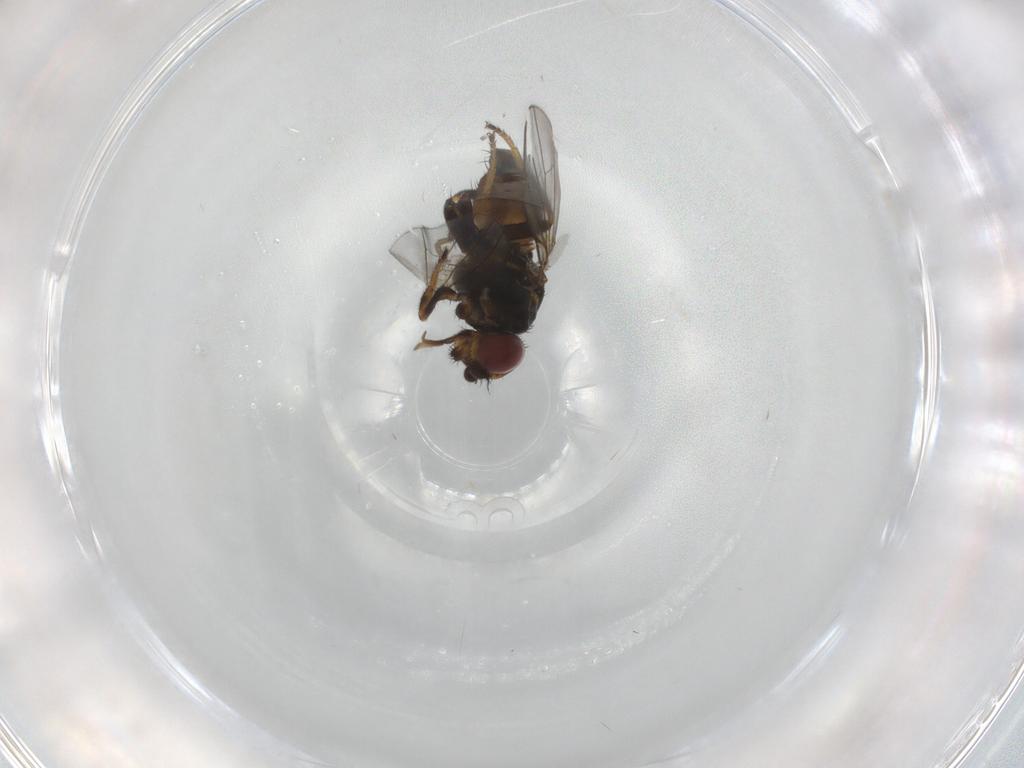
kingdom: Animalia
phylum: Arthropoda
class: Insecta
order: Diptera
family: Milichiidae
